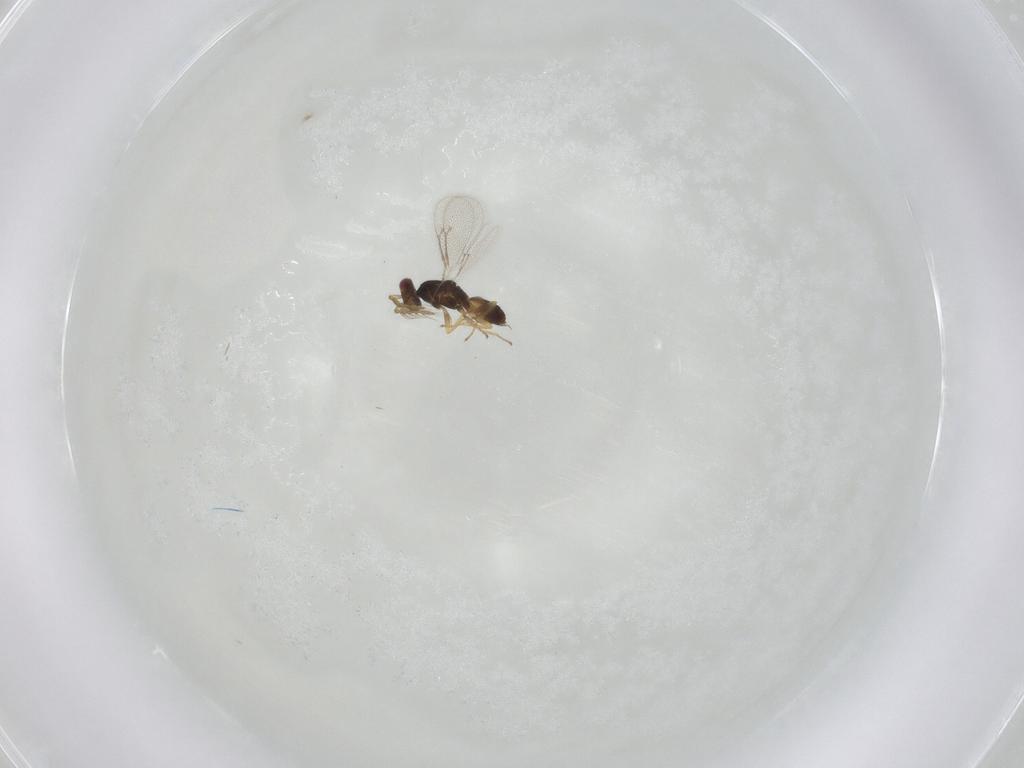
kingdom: Animalia
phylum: Arthropoda
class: Insecta
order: Hymenoptera
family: Eulophidae
